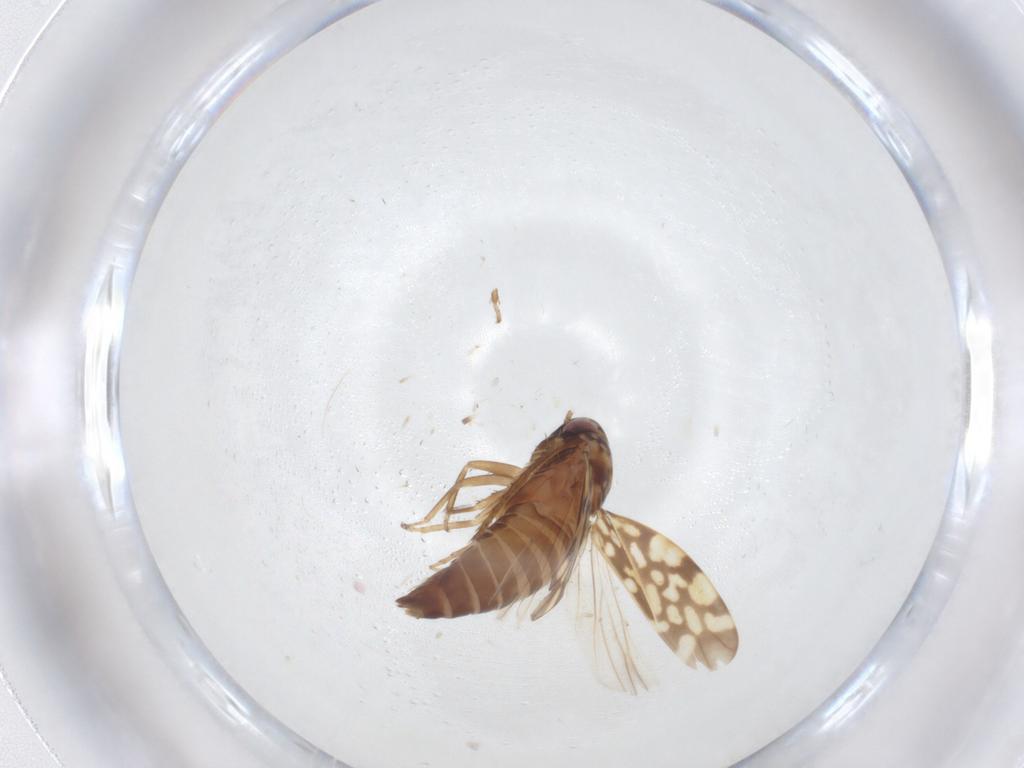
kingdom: Animalia
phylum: Arthropoda
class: Insecta
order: Hemiptera
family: Cicadellidae
